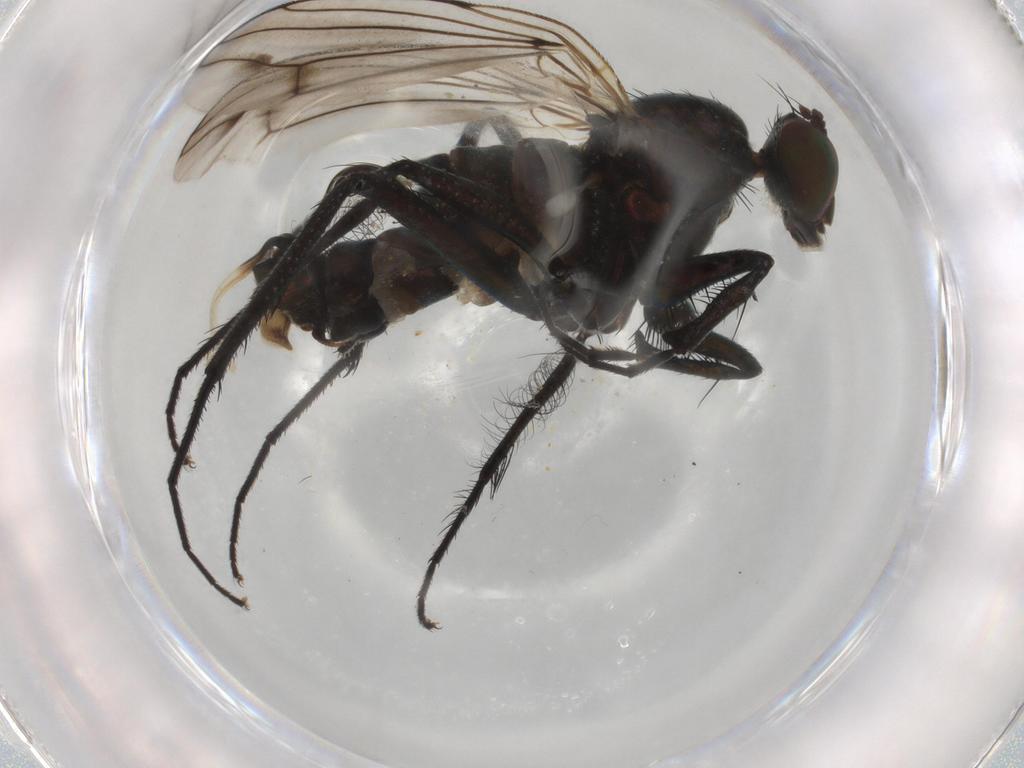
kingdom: Animalia
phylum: Arthropoda
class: Insecta
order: Diptera
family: Dolichopodidae
